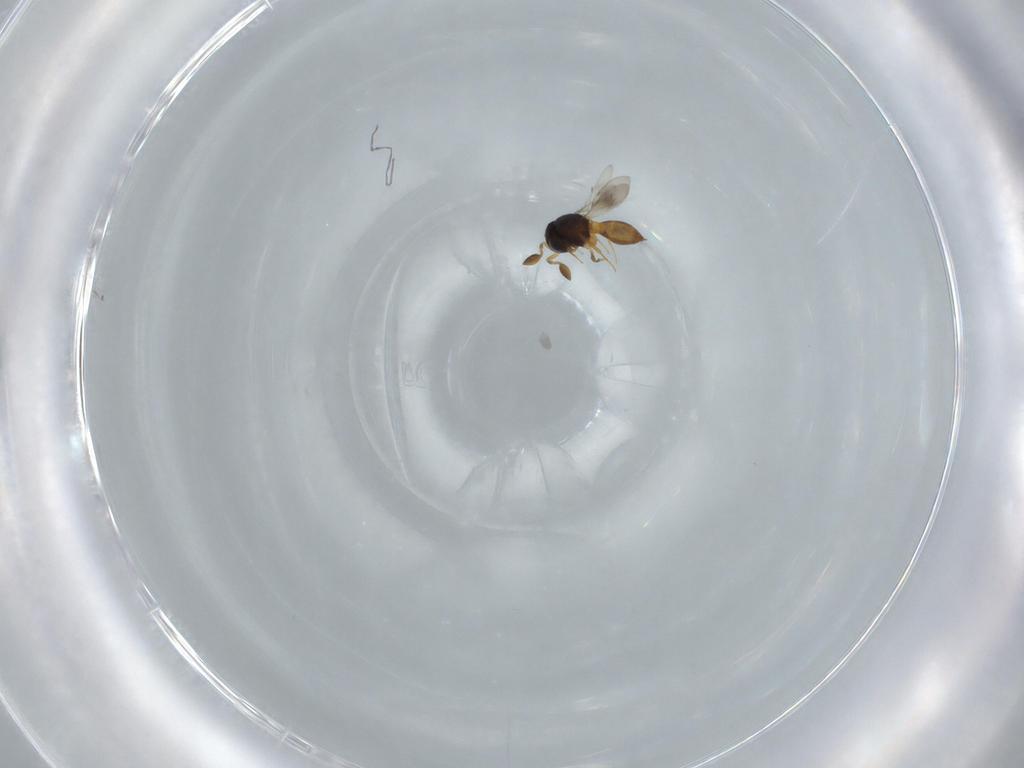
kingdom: Animalia
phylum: Arthropoda
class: Insecta
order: Hymenoptera
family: Scelionidae
